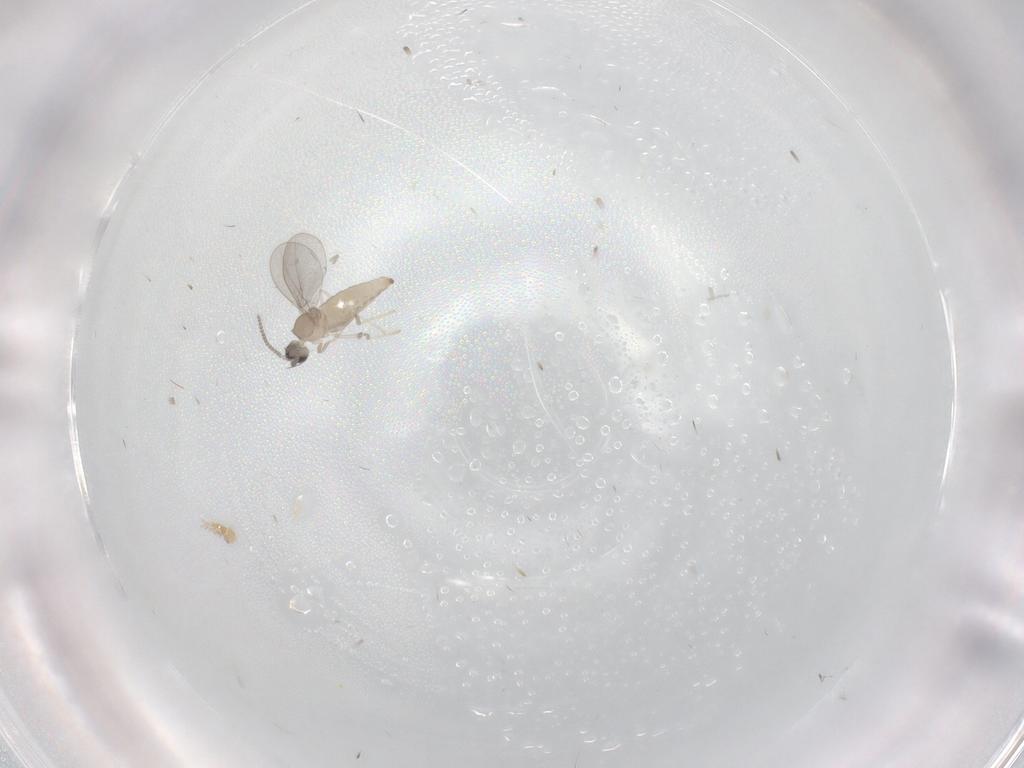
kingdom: Animalia
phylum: Arthropoda
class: Insecta
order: Diptera
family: Cecidomyiidae
